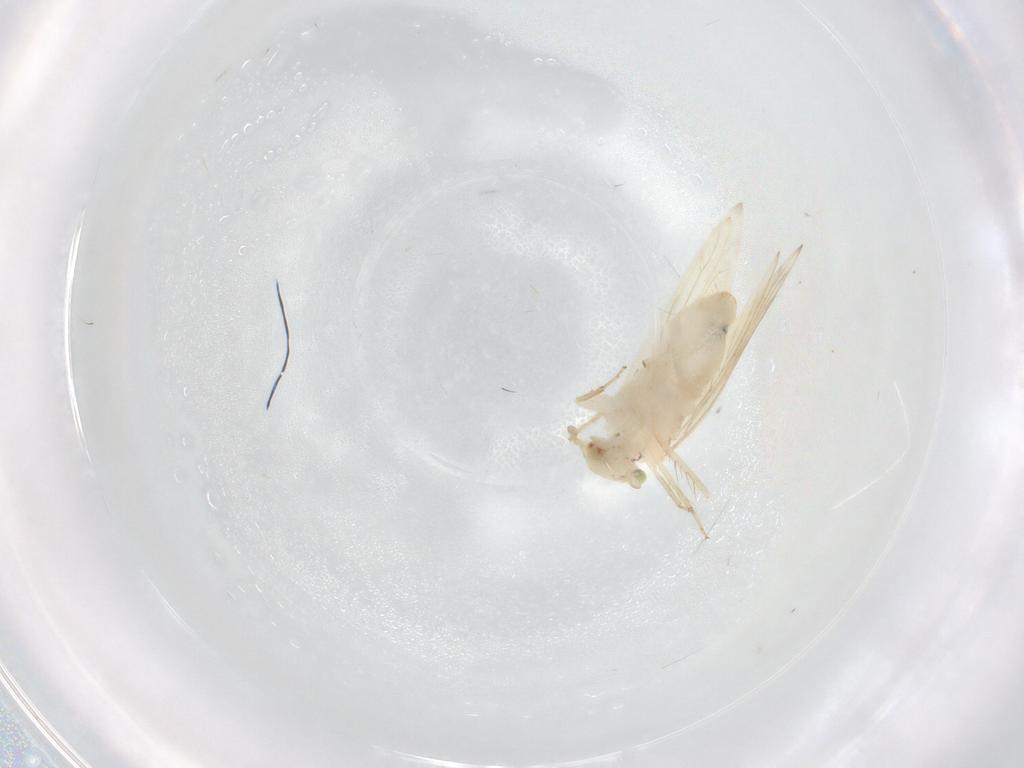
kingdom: Animalia
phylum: Arthropoda
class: Insecta
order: Psocodea
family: Lepidopsocidae
